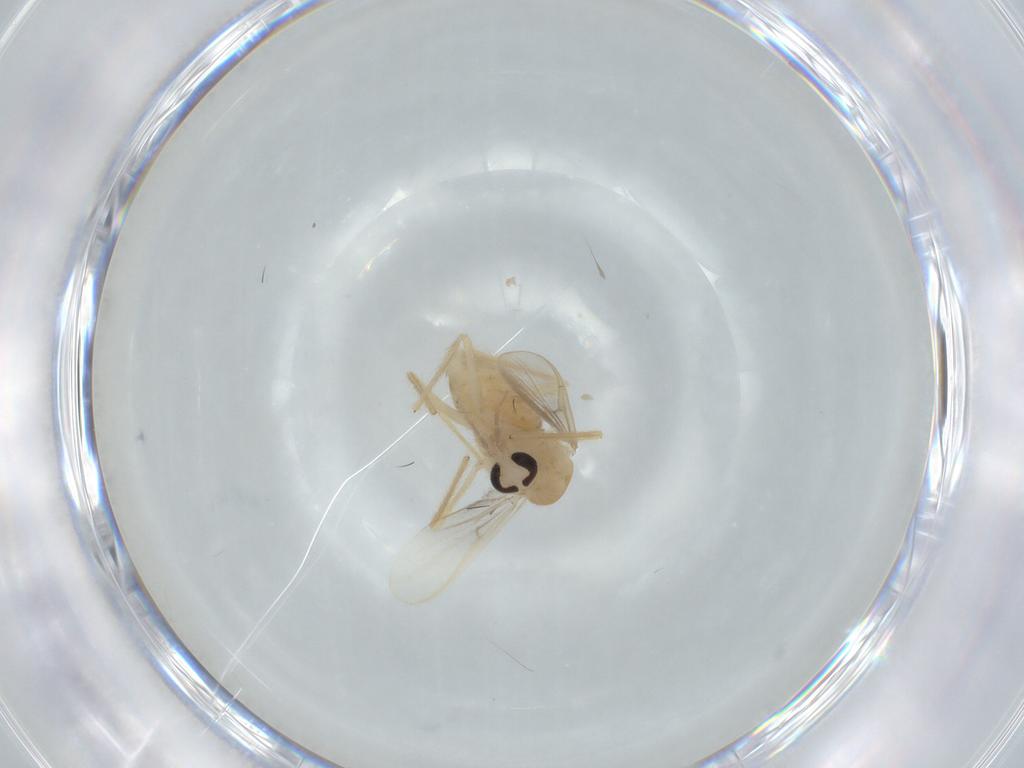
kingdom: Animalia
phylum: Arthropoda
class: Insecta
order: Diptera
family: Chironomidae
